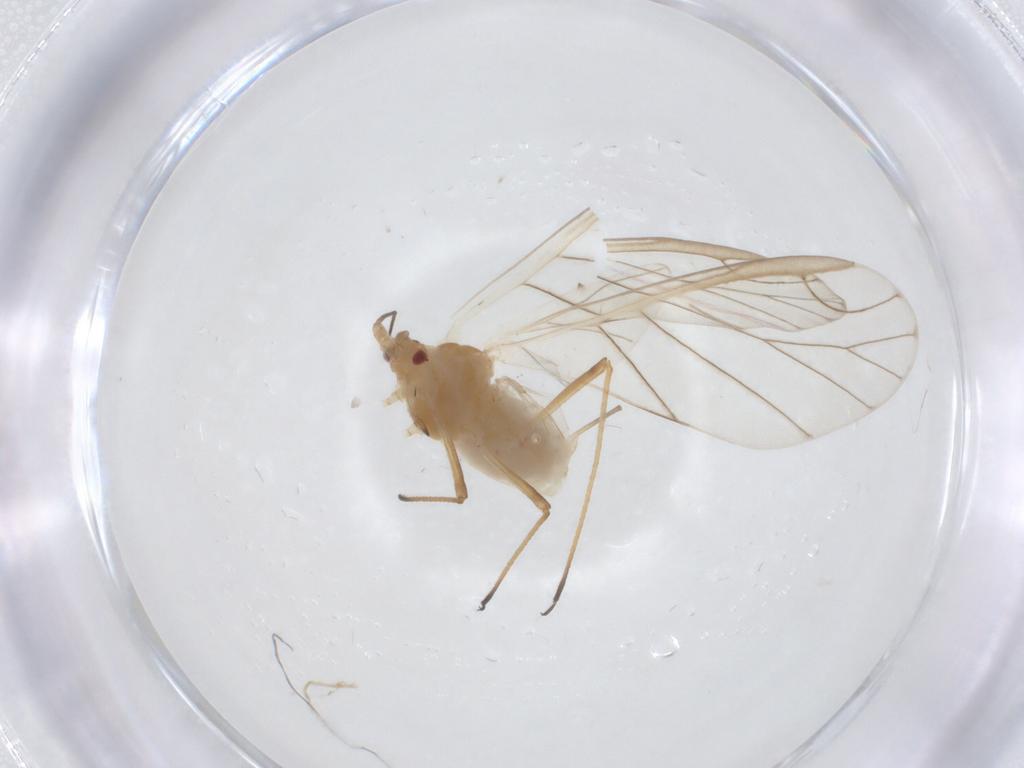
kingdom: Animalia
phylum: Arthropoda
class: Insecta
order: Hemiptera
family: Aphididae
